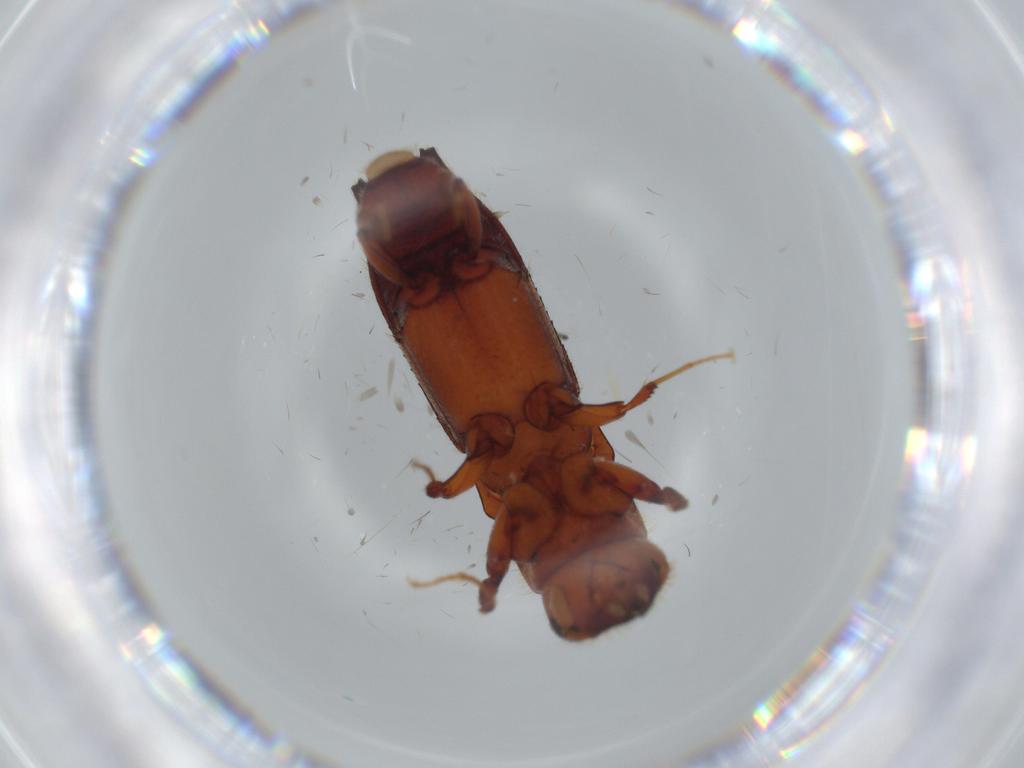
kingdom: Animalia
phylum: Arthropoda
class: Insecta
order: Coleoptera
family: Curculionidae
